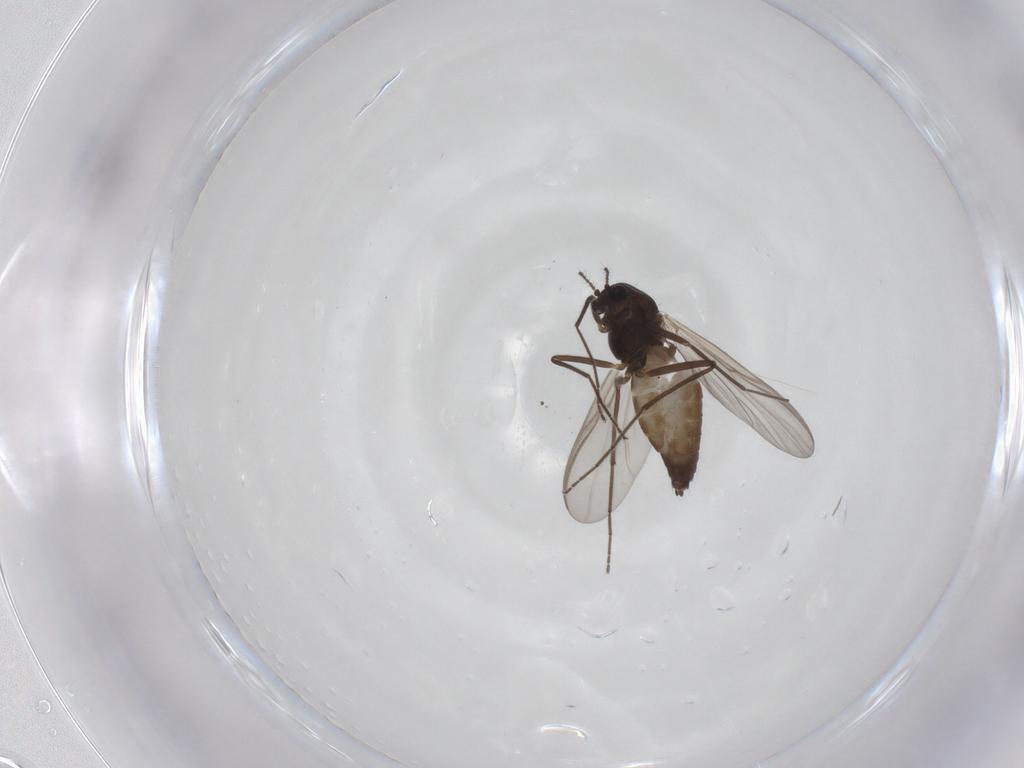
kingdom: Animalia
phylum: Arthropoda
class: Insecta
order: Diptera
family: Chironomidae
